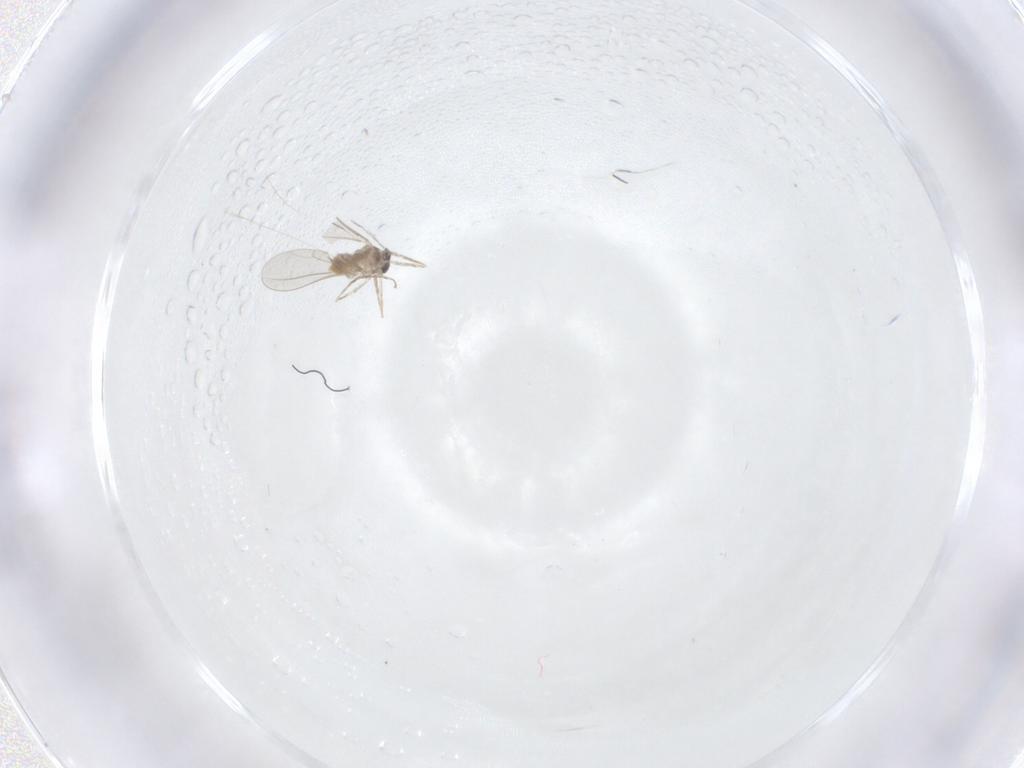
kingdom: Animalia
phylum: Arthropoda
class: Insecta
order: Diptera
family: Cecidomyiidae
